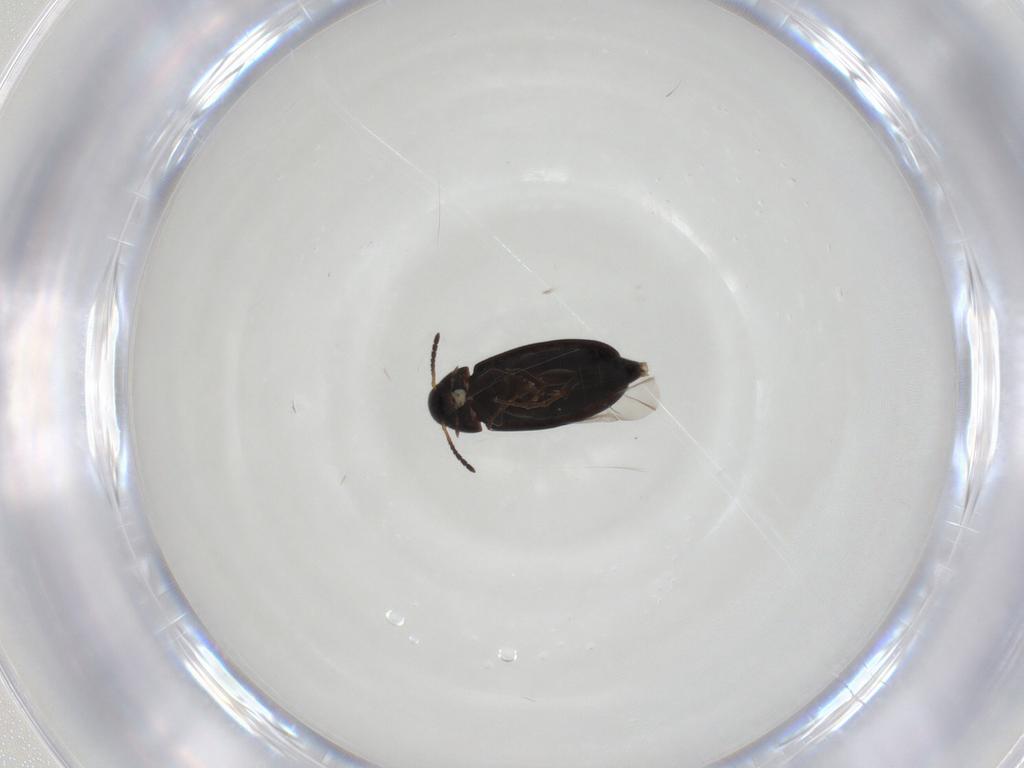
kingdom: Animalia
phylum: Arthropoda
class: Insecta
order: Coleoptera
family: Scraptiidae
